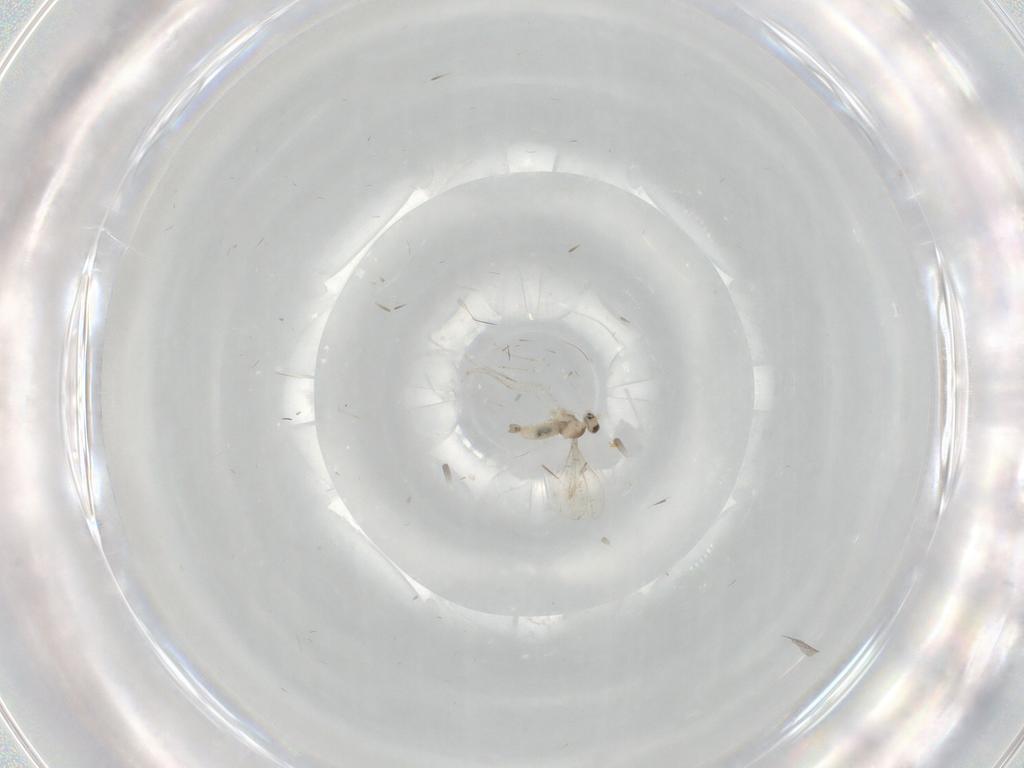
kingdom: Animalia
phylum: Arthropoda
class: Insecta
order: Diptera
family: Cecidomyiidae
